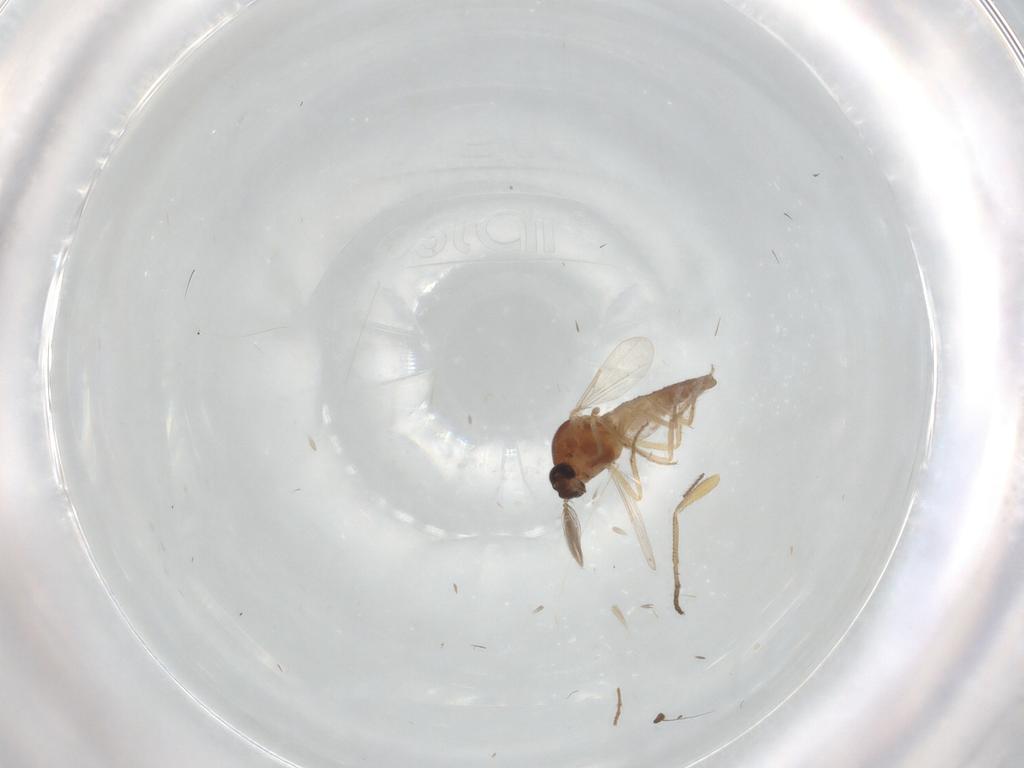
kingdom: Animalia
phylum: Arthropoda
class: Insecta
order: Diptera
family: Ceratopogonidae
